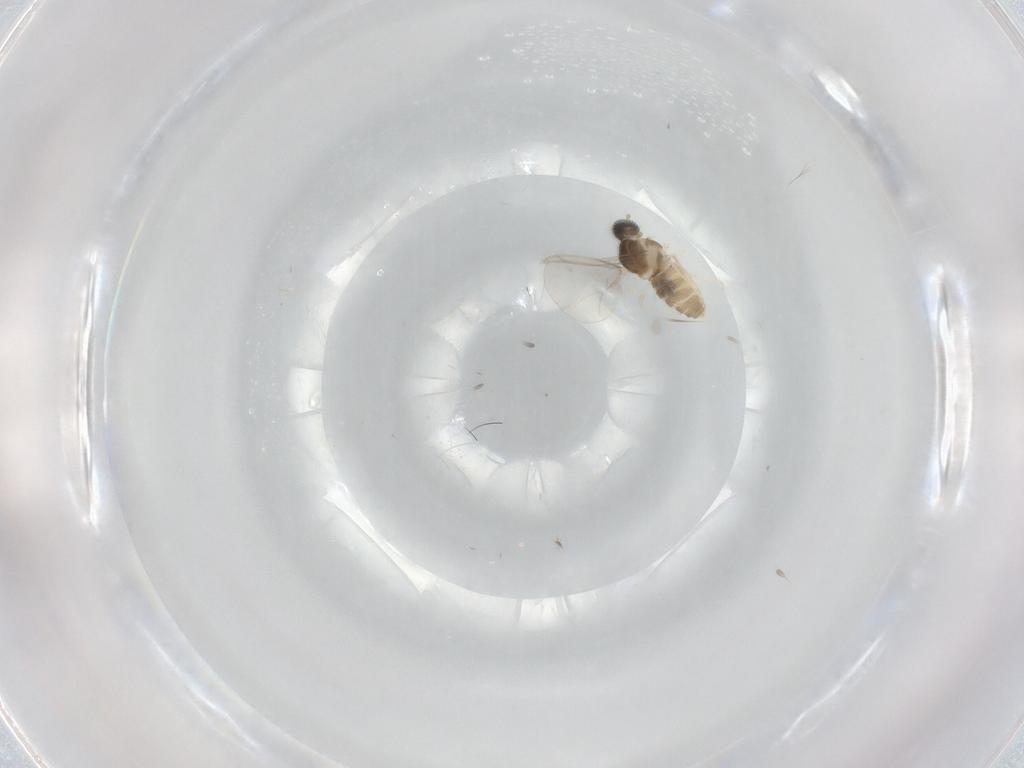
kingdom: Animalia
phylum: Arthropoda
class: Insecta
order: Diptera
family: Cecidomyiidae
